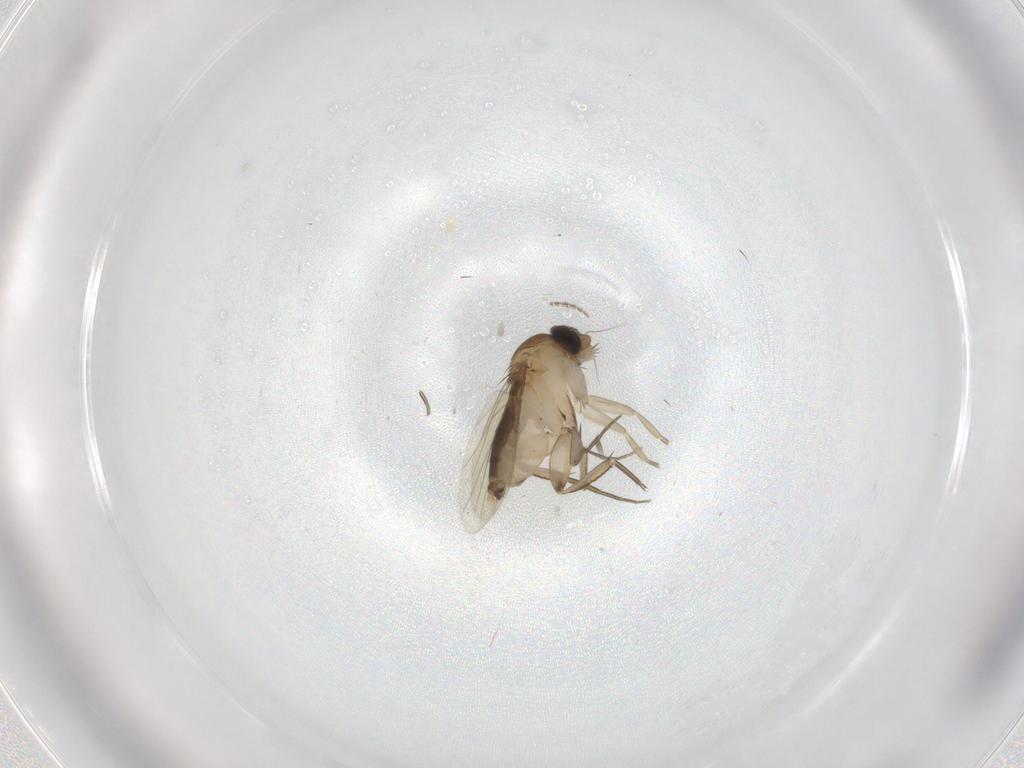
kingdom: Animalia
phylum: Arthropoda
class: Insecta
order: Diptera
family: Phoridae
